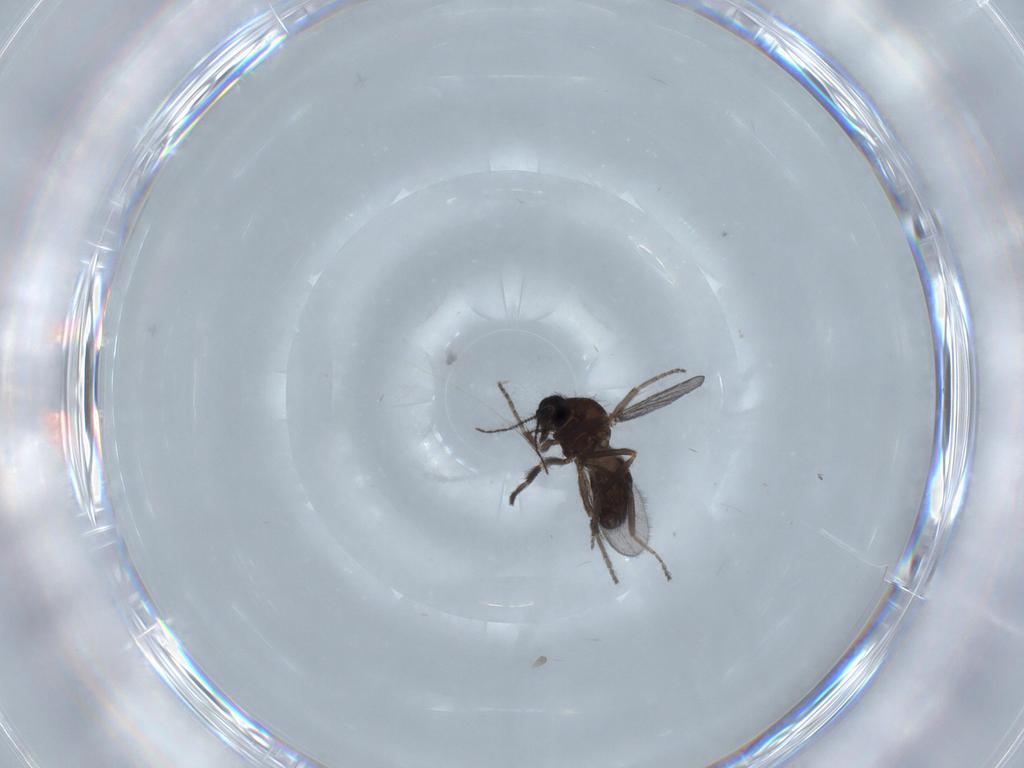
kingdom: Animalia
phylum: Arthropoda
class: Insecta
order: Diptera
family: Ceratopogonidae
